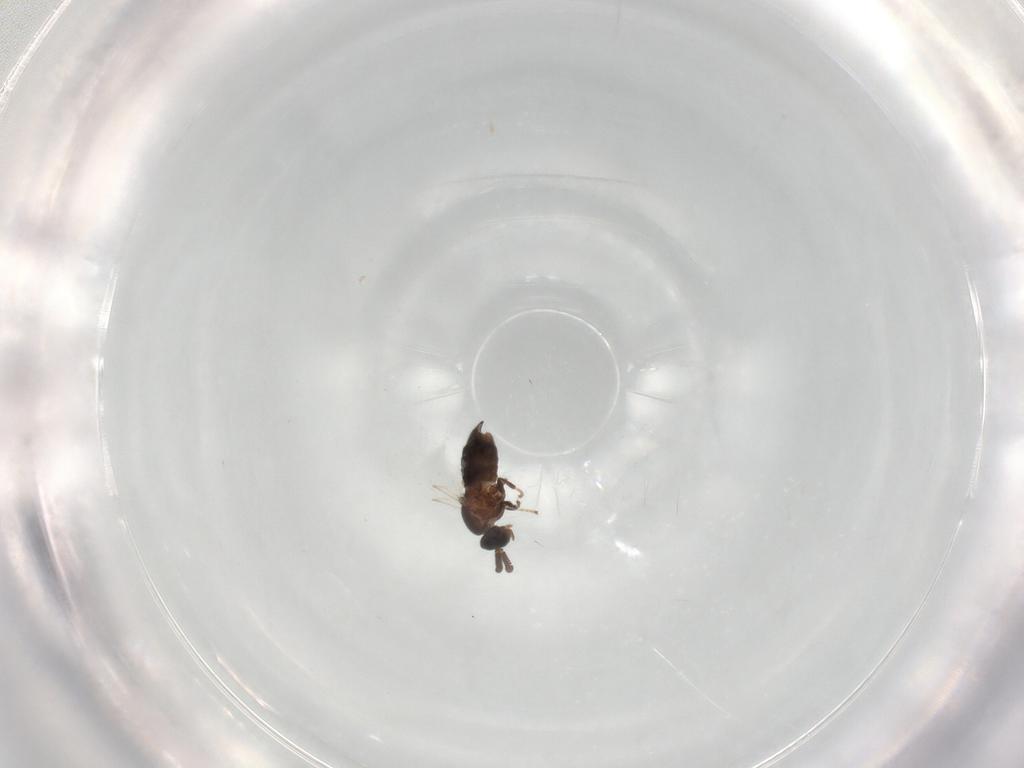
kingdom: Animalia
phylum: Arthropoda
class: Insecta
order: Diptera
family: Scatopsidae
